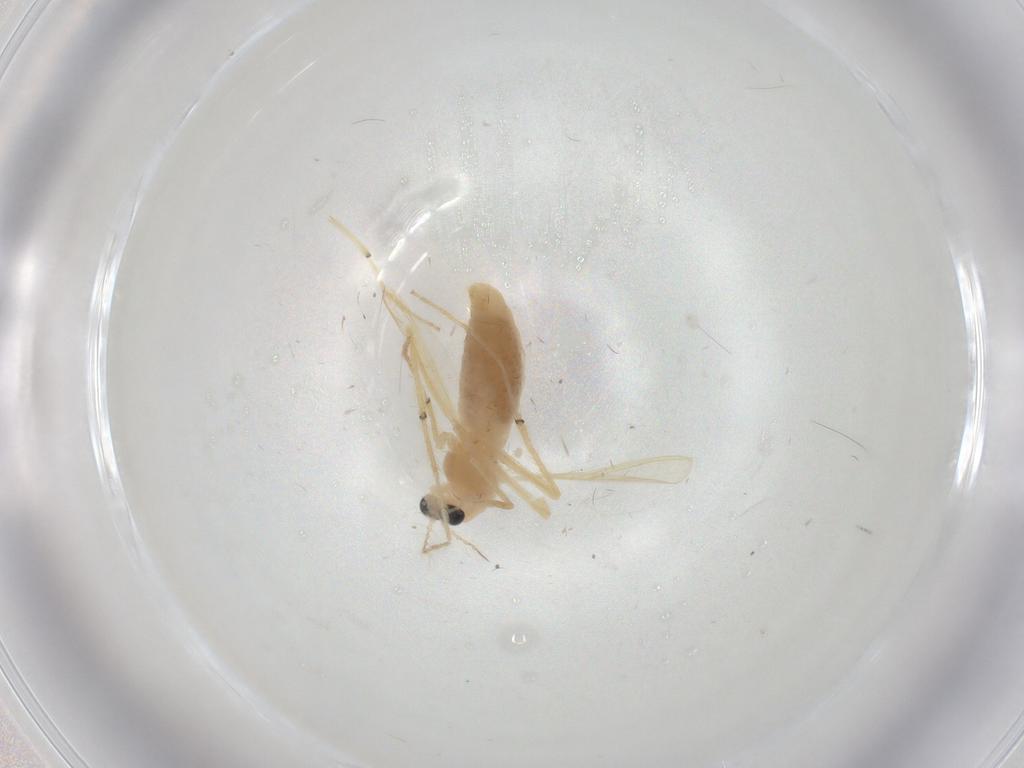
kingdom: Animalia
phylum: Arthropoda
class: Insecta
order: Diptera
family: Chironomidae
